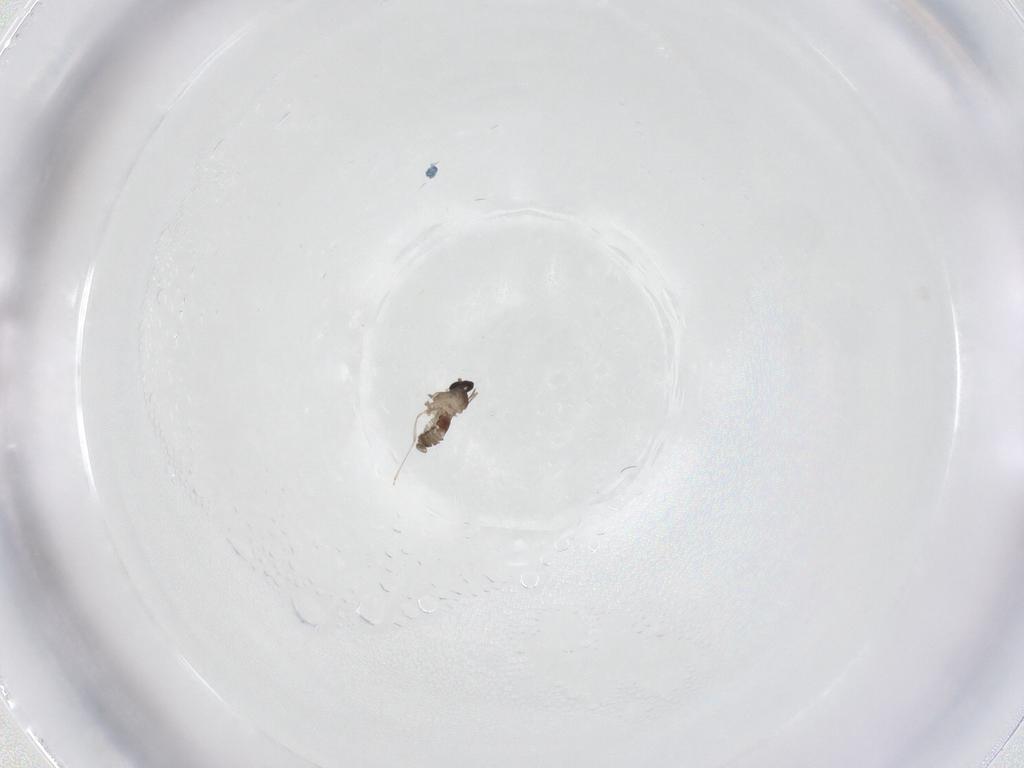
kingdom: Animalia
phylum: Arthropoda
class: Insecta
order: Diptera
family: Cecidomyiidae
